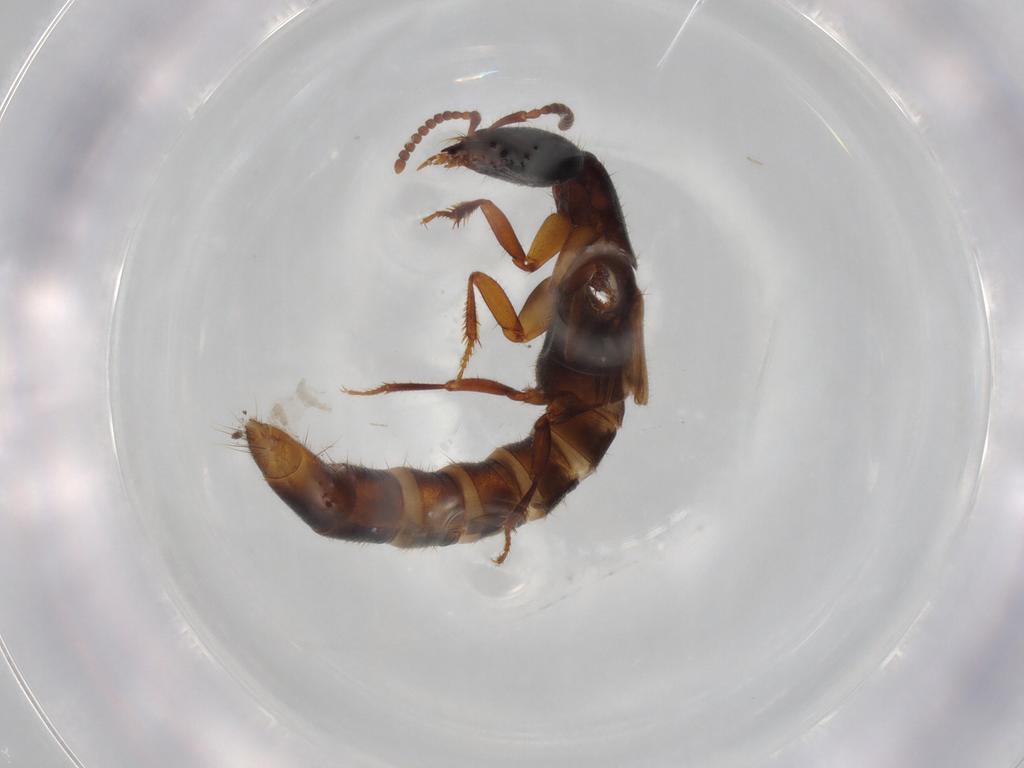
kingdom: Animalia
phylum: Arthropoda
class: Insecta
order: Coleoptera
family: Staphylinidae
